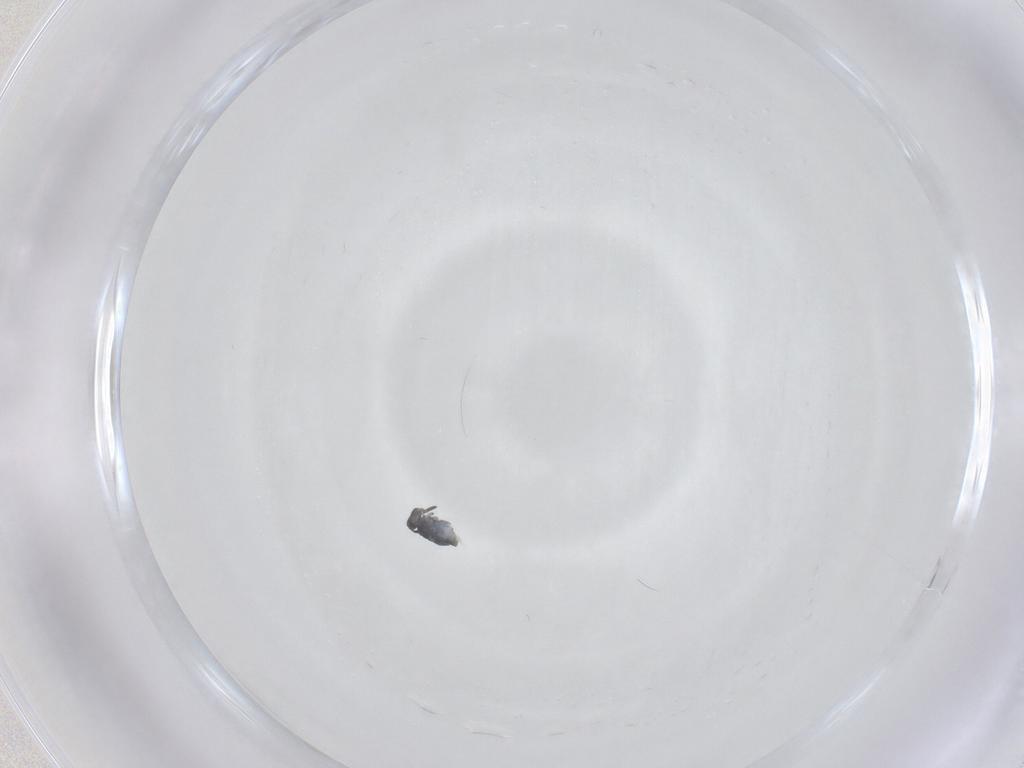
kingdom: Animalia
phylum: Arthropoda
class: Collembola
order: Symphypleona
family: Katiannidae
